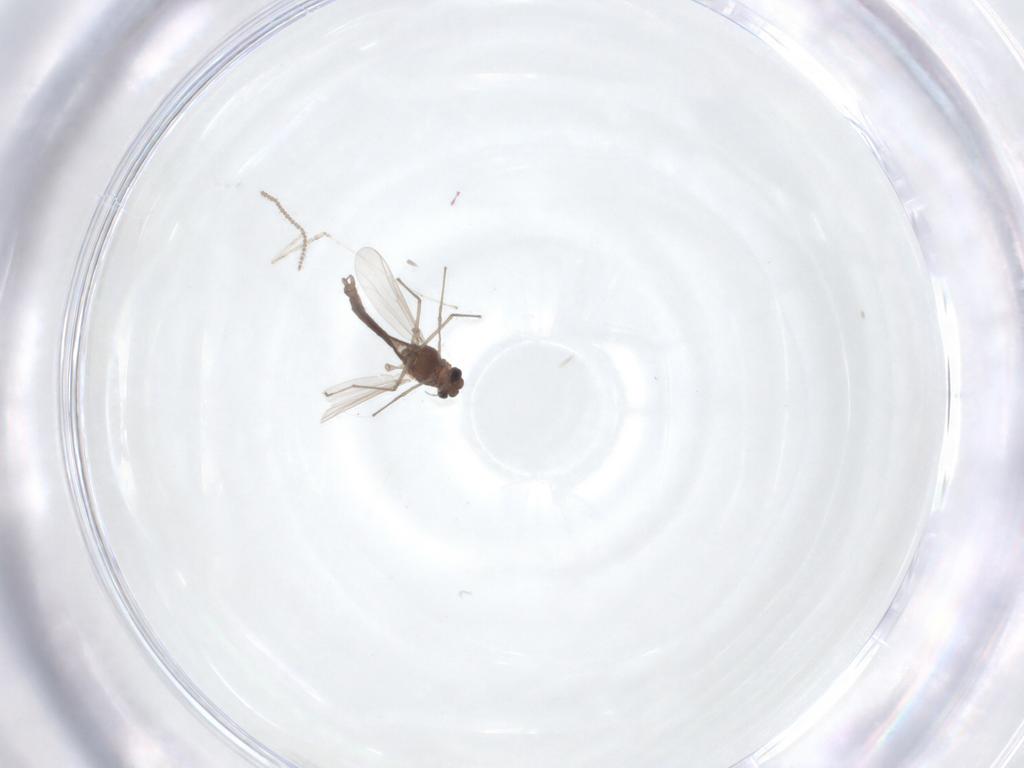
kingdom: Animalia
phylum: Arthropoda
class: Insecta
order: Diptera
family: Chironomidae
